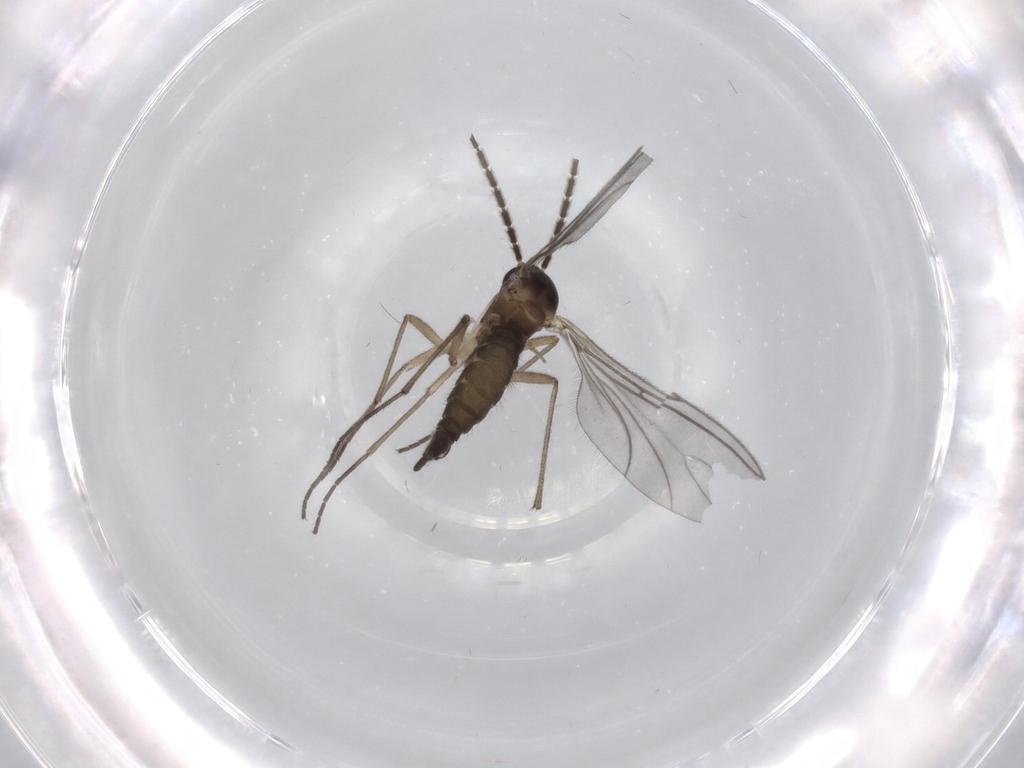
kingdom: Animalia
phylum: Arthropoda
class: Insecta
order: Diptera
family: Sciaridae
